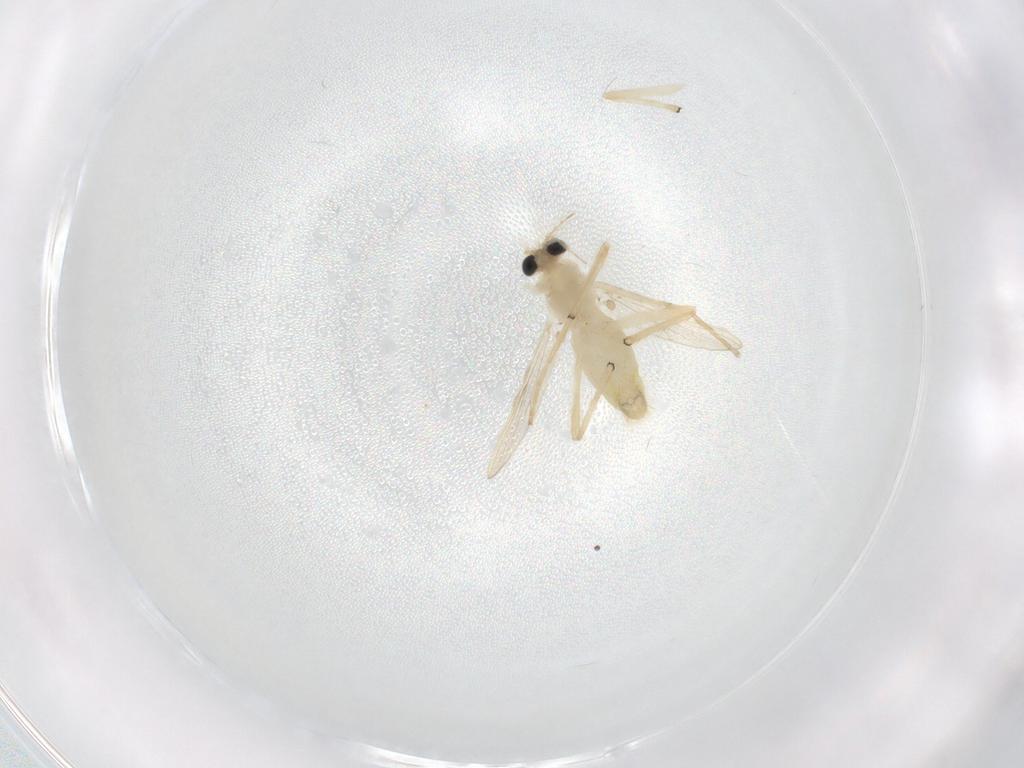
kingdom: Animalia
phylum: Arthropoda
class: Insecta
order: Diptera
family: Chironomidae
